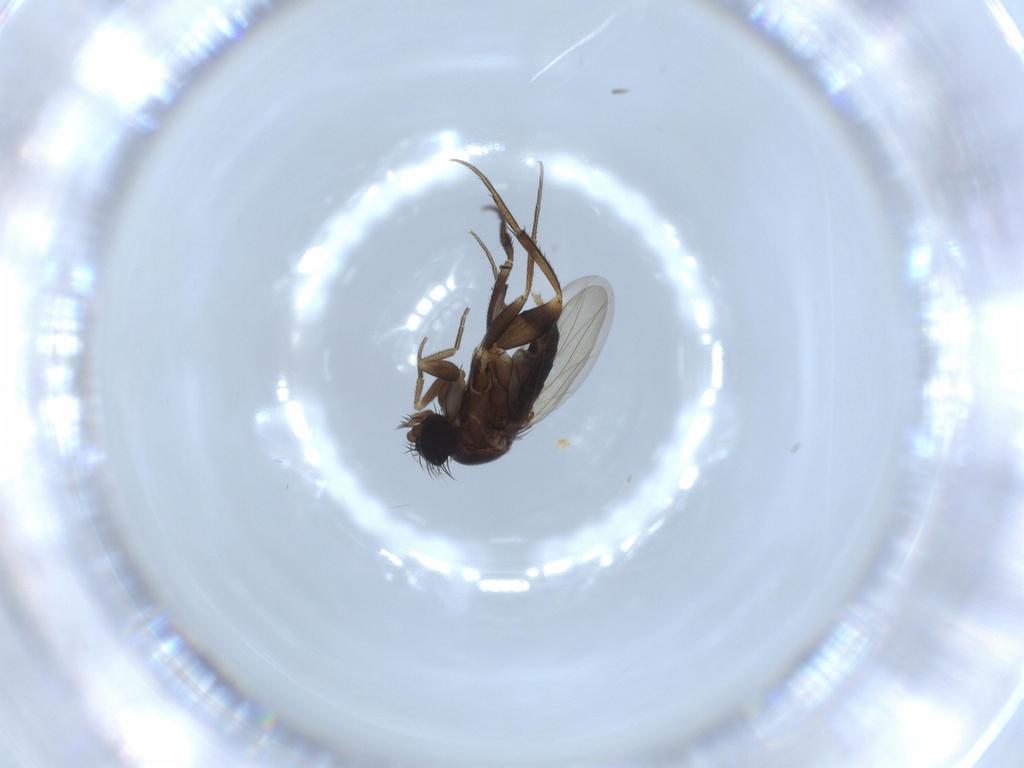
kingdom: Animalia
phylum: Arthropoda
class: Insecta
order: Diptera
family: Phoridae
